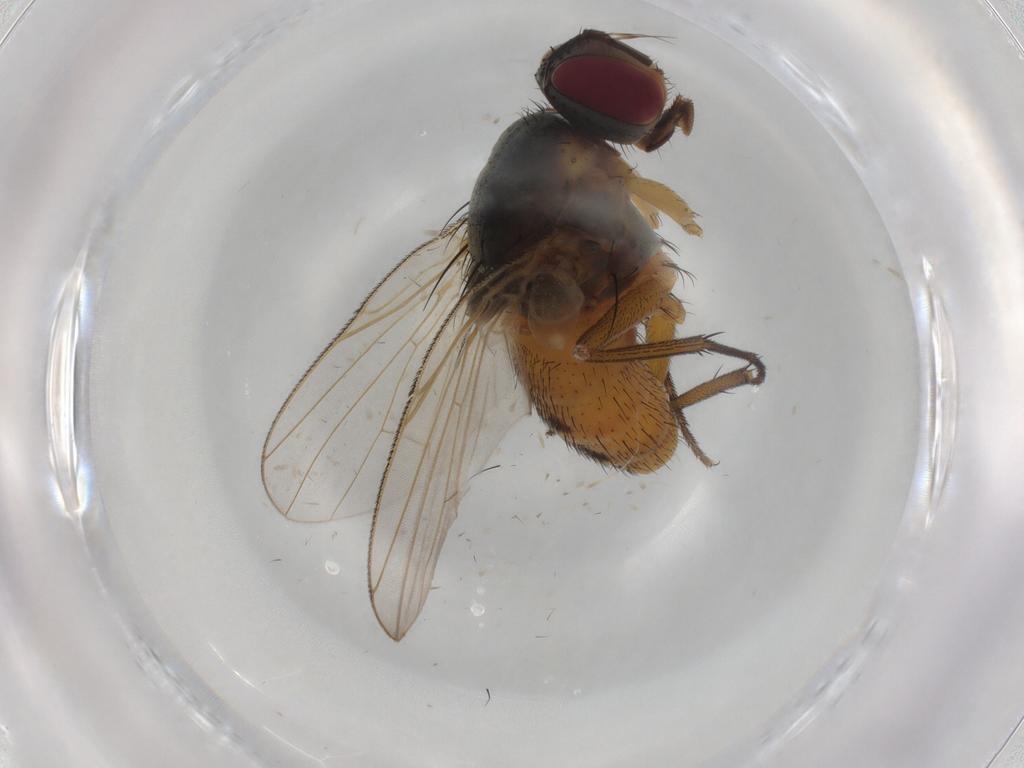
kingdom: Animalia
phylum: Arthropoda
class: Insecta
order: Diptera
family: Muscidae
